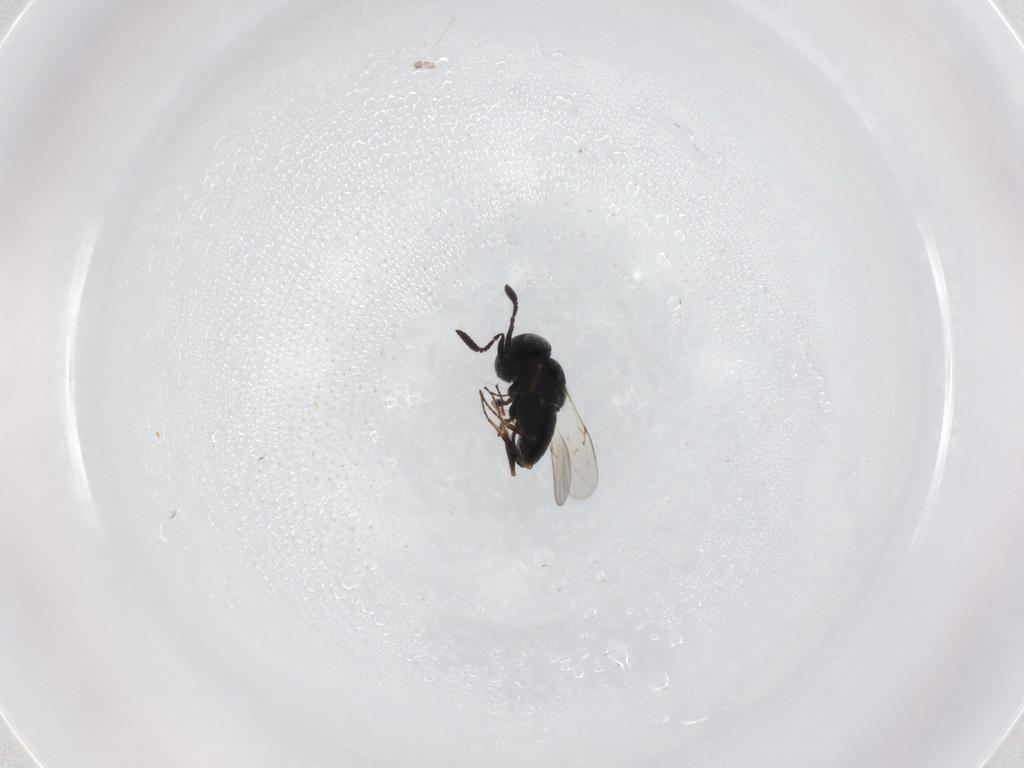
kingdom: Animalia
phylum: Arthropoda
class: Insecta
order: Hymenoptera
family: Scelionidae
